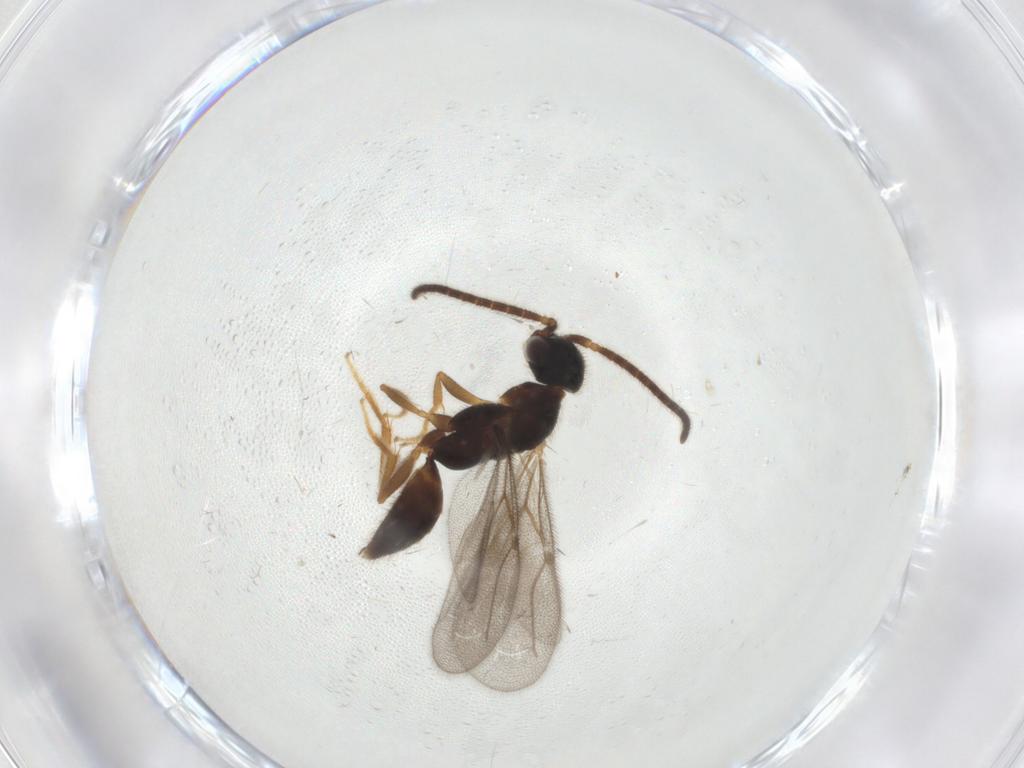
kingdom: Animalia
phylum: Arthropoda
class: Insecta
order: Hymenoptera
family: Bethylidae
